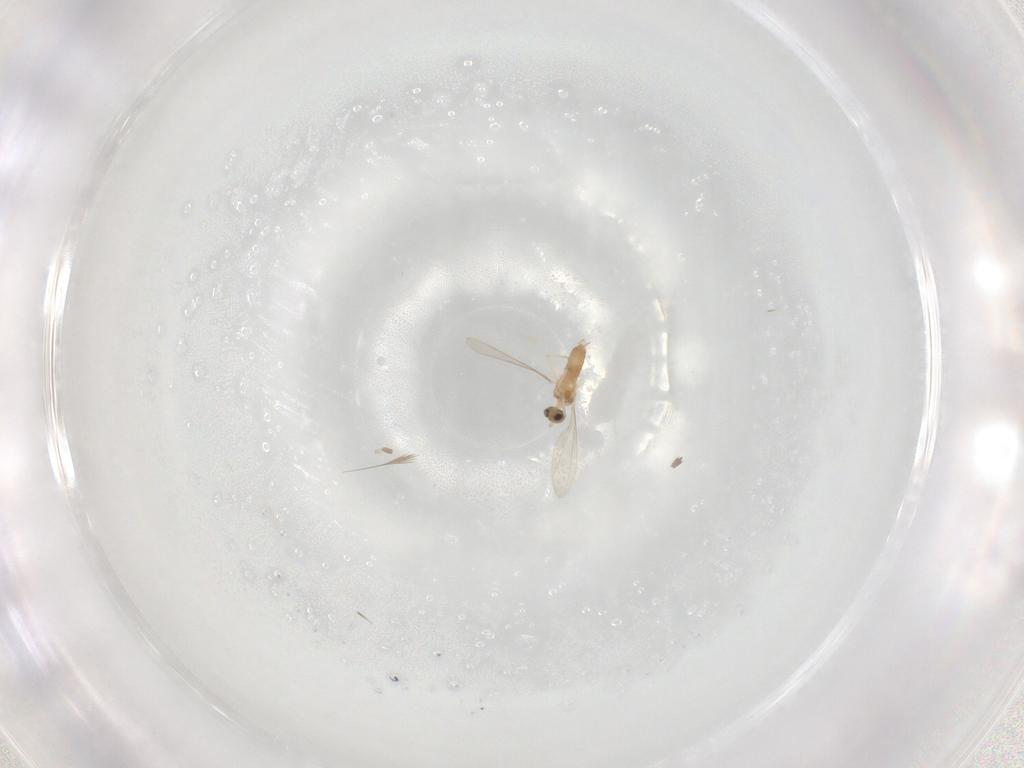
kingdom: Animalia
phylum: Arthropoda
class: Insecta
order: Diptera
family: Cecidomyiidae
